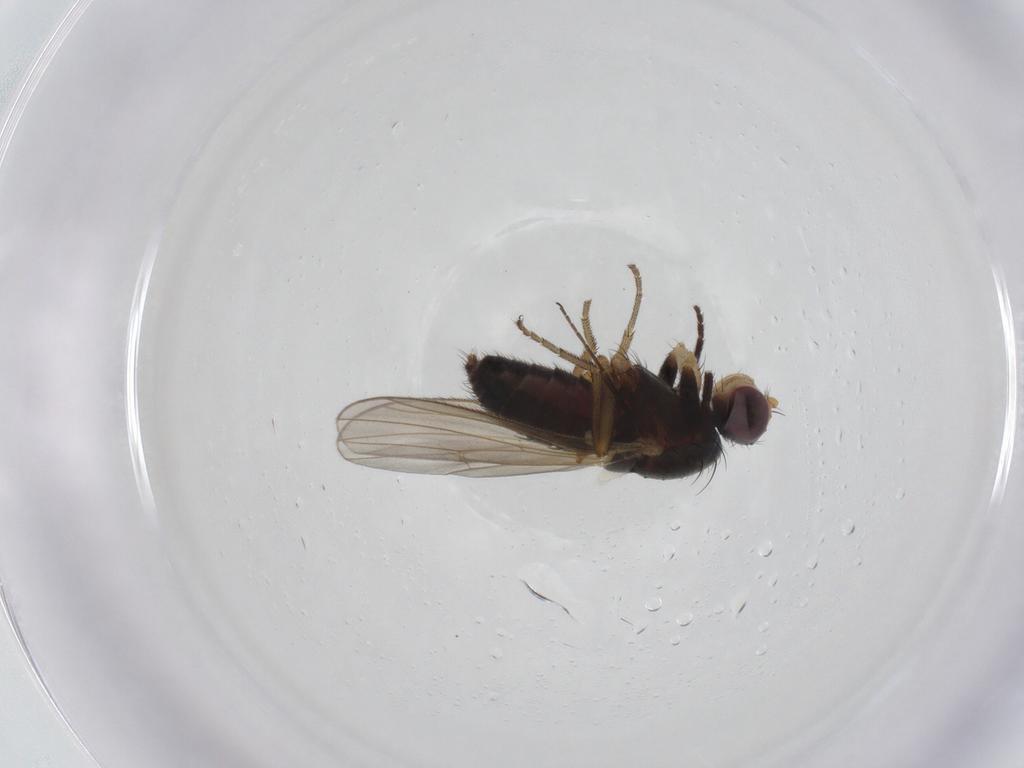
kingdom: Animalia
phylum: Arthropoda
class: Insecta
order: Diptera
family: Heleomyzidae
